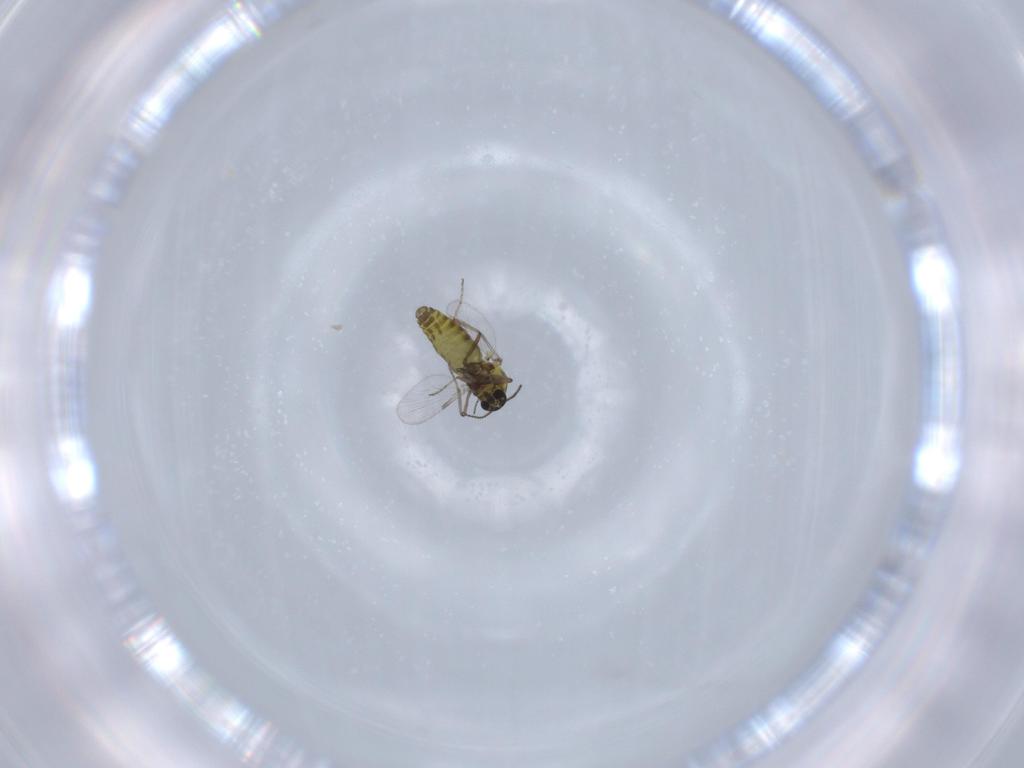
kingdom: Animalia
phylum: Arthropoda
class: Insecta
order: Diptera
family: Ceratopogonidae
